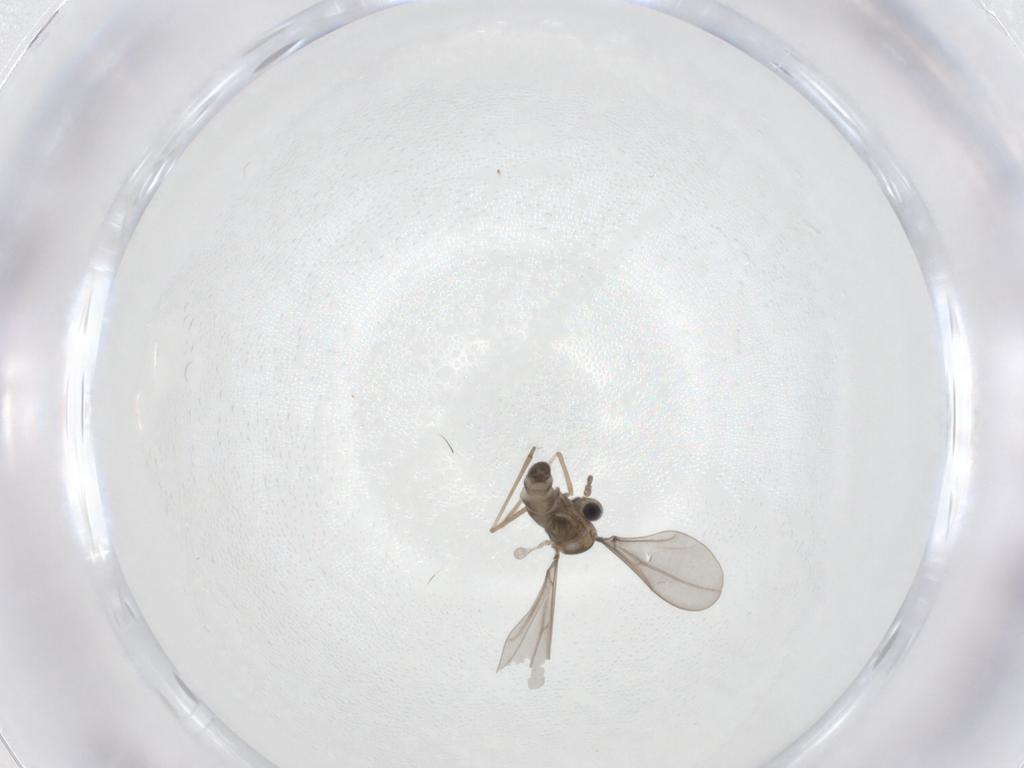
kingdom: Animalia
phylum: Arthropoda
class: Insecta
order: Diptera
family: Limoniidae
